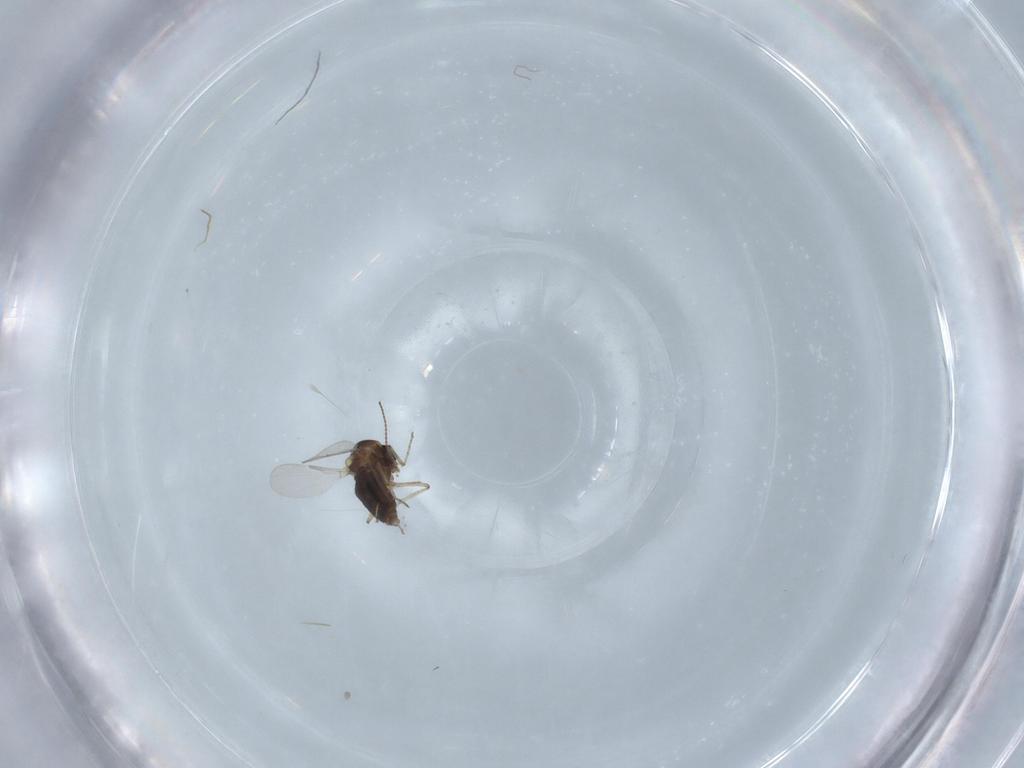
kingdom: Animalia
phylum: Arthropoda
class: Insecta
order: Diptera
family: Ceratopogonidae
